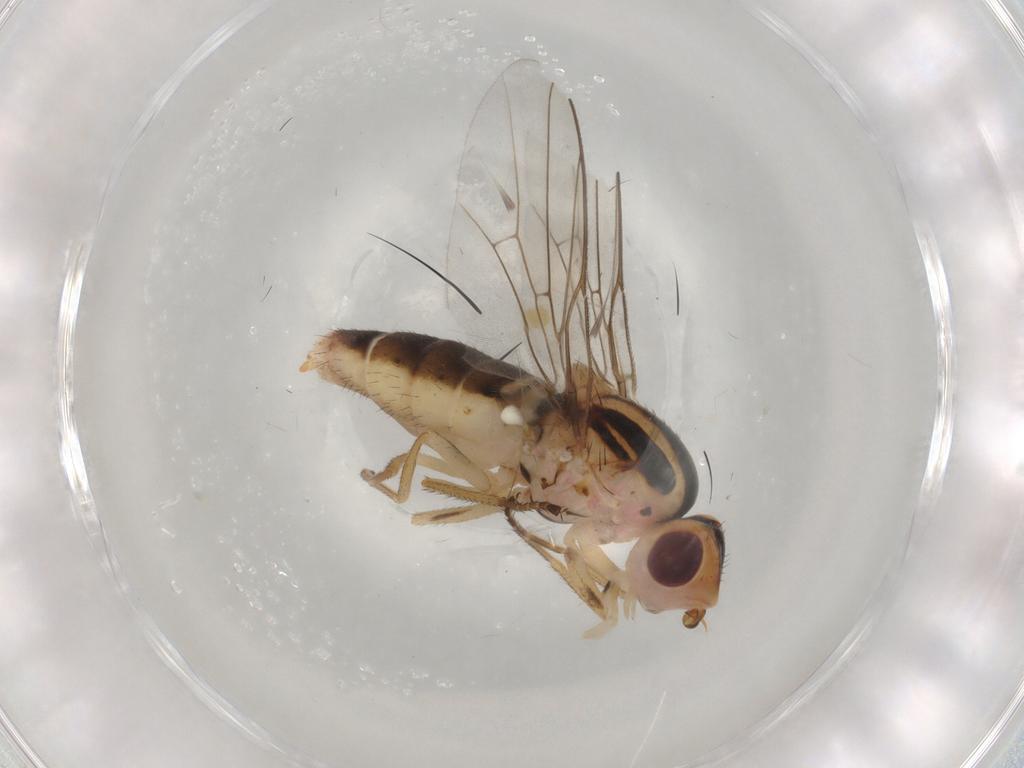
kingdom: Animalia
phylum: Arthropoda
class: Insecta
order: Diptera
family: Chloropidae
